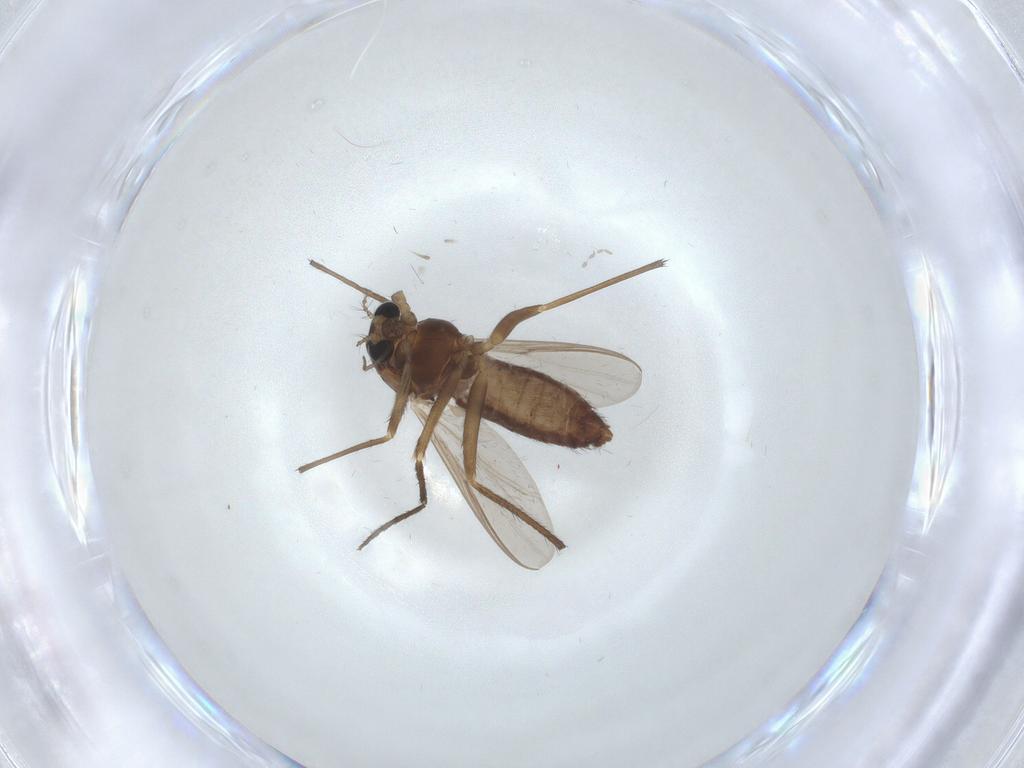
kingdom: Animalia
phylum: Arthropoda
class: Insecta
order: Diptera
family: Chironomidae
